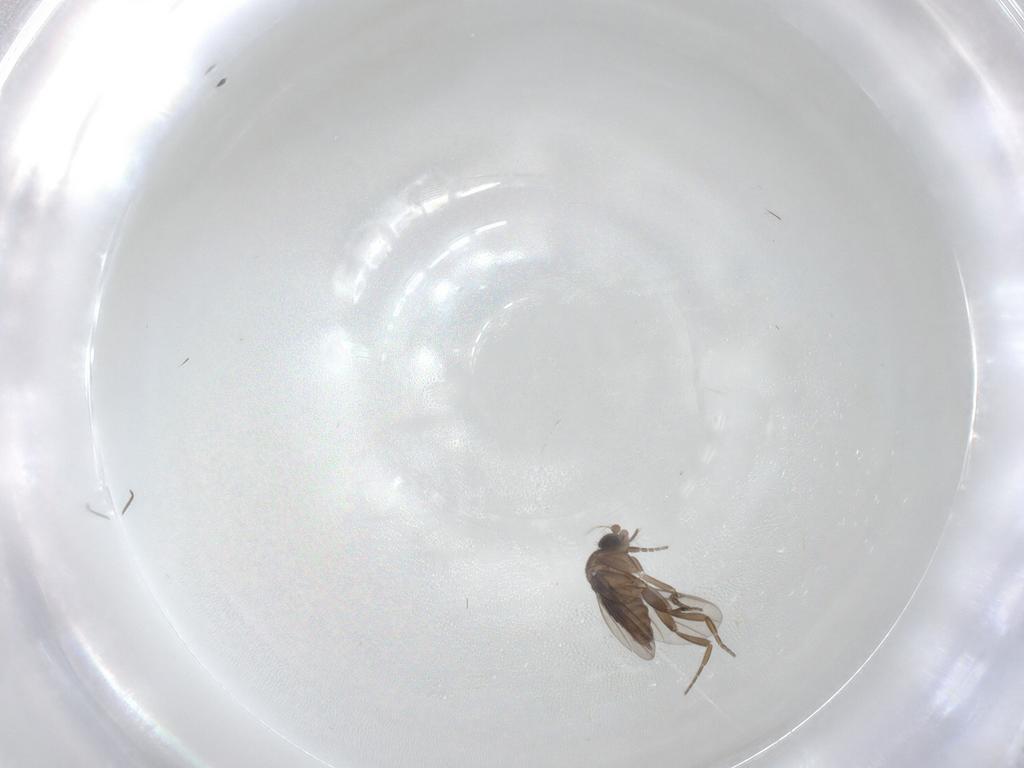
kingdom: Animalia
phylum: Arthropoda
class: Insecta
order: Diptera
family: Phoridae
